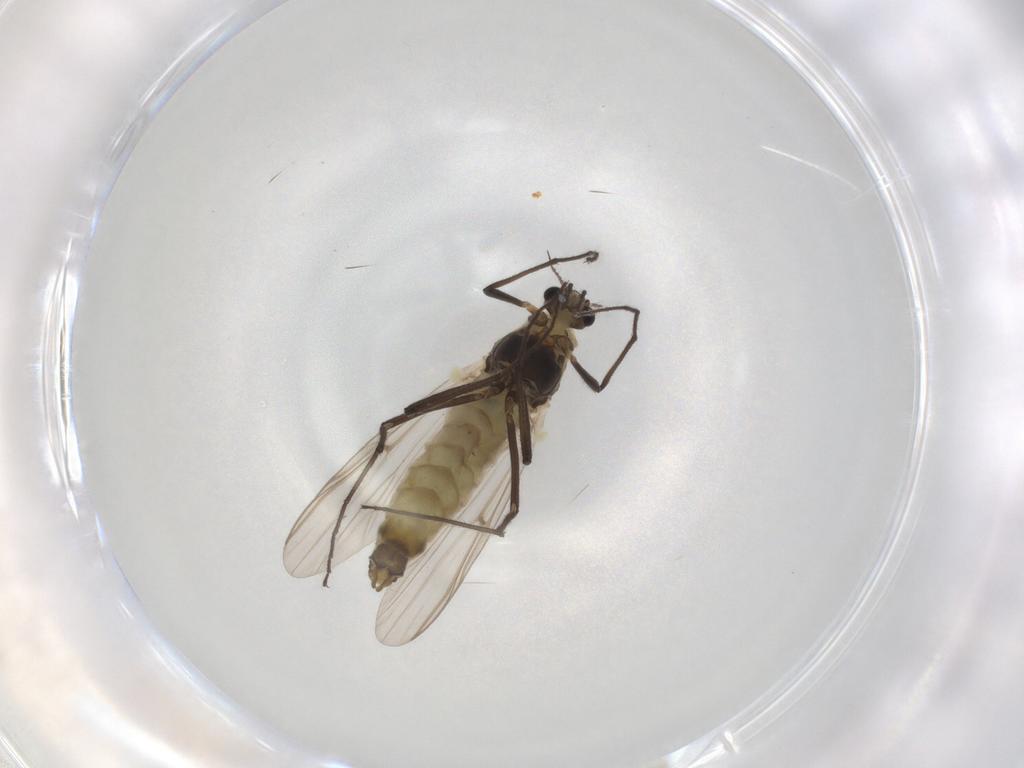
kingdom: Animalia
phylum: Arthropoda
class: Insecta
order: Diptera
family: Chironomidae
